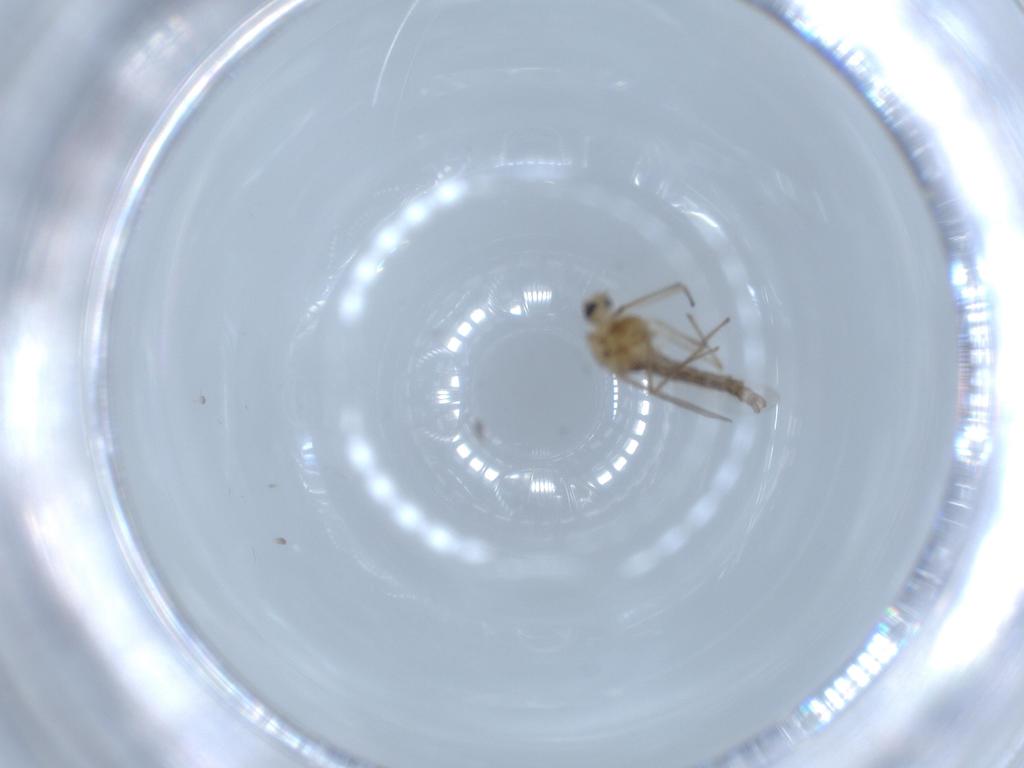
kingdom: Animalia
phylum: Arthropoda
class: Insecta
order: Diptera
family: Chironomidae
